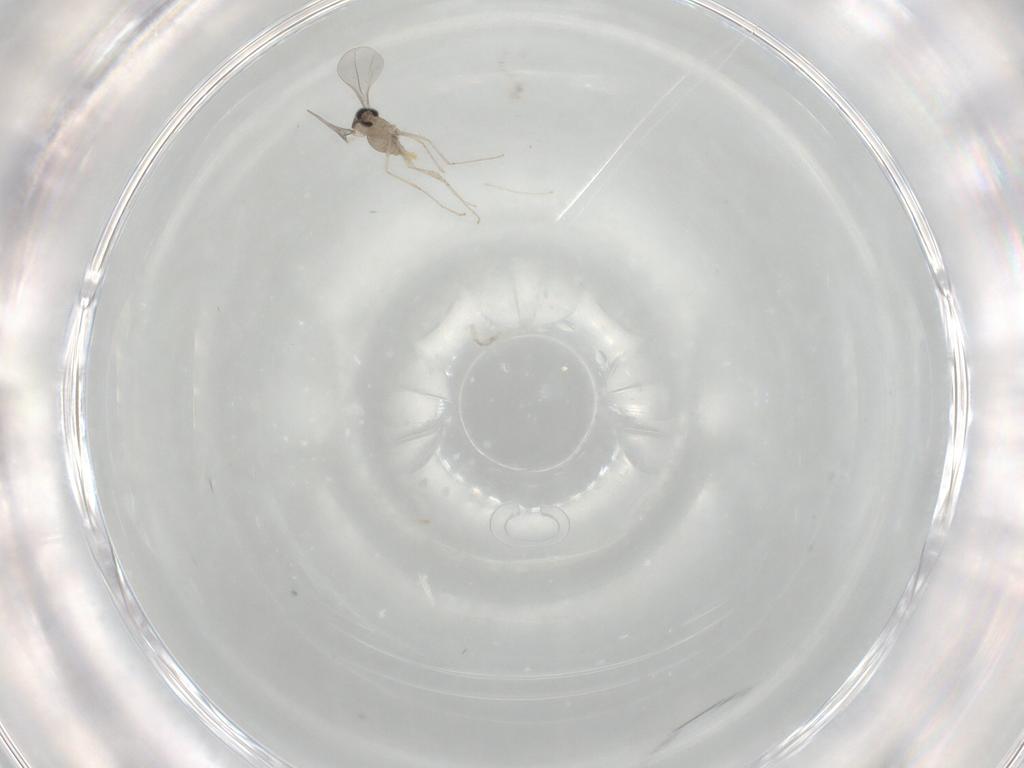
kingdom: Animalia
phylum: Arthropoda
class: Insecta
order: Diptera
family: Cecidomyiidae
